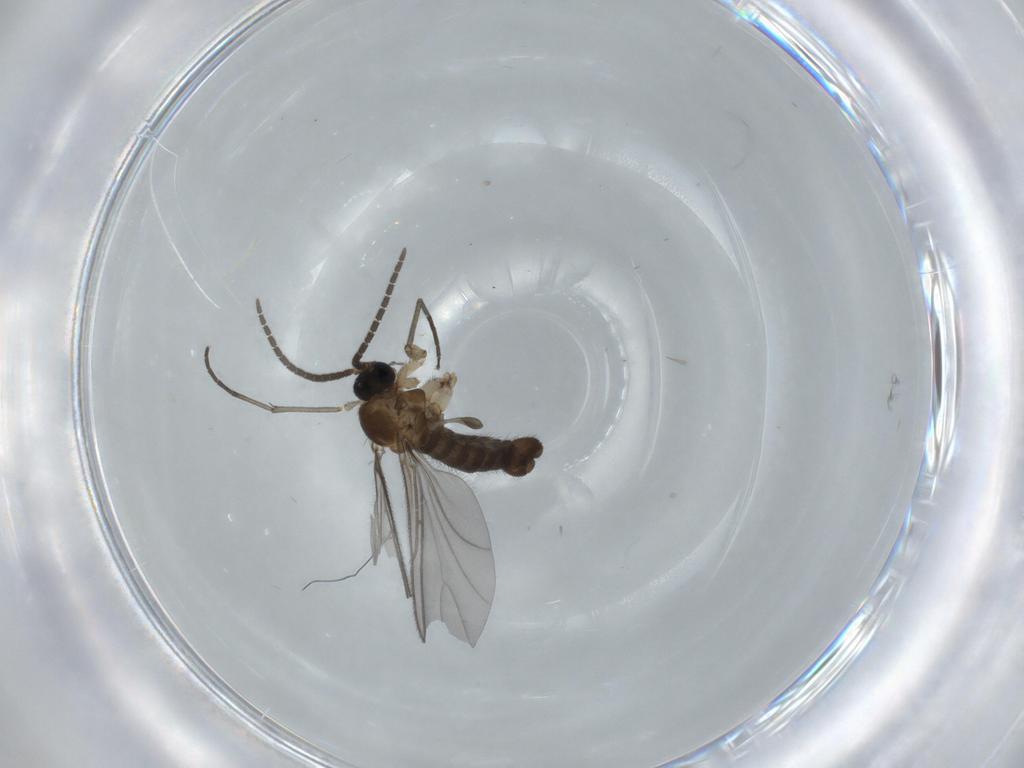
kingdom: Animalia
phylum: Arthropoda
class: Insecta
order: Diptera
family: Sciaridae
